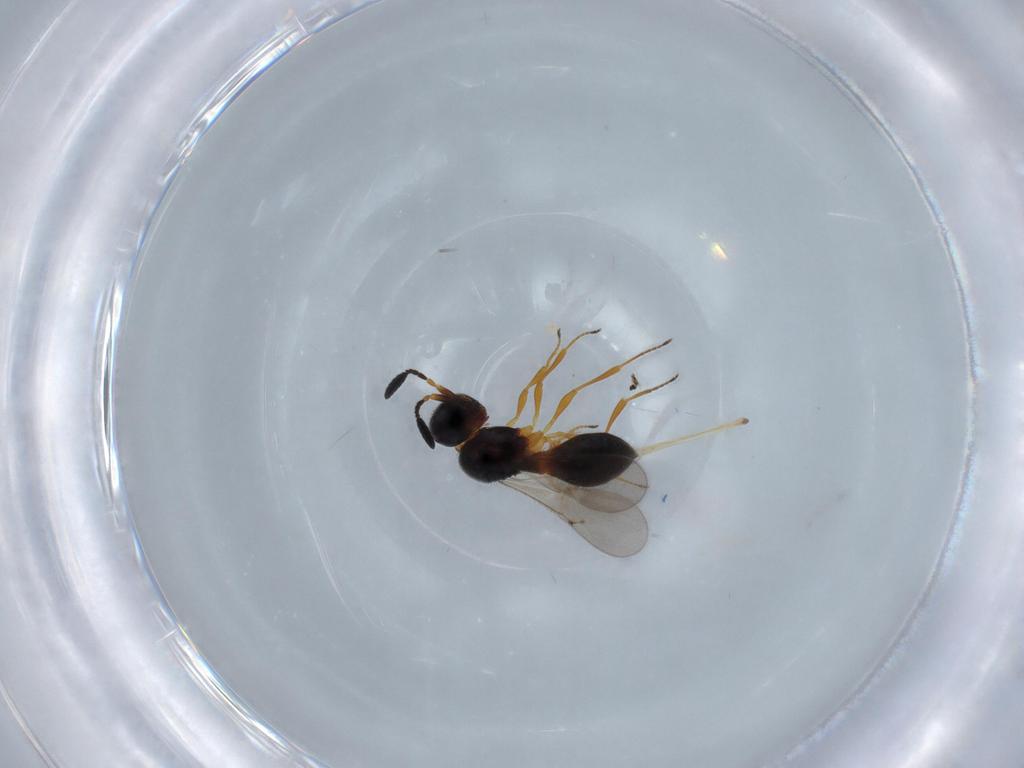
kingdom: Animalia
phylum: Arthropoda
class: Insecta
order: Hymenoptera
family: Scelionidae
